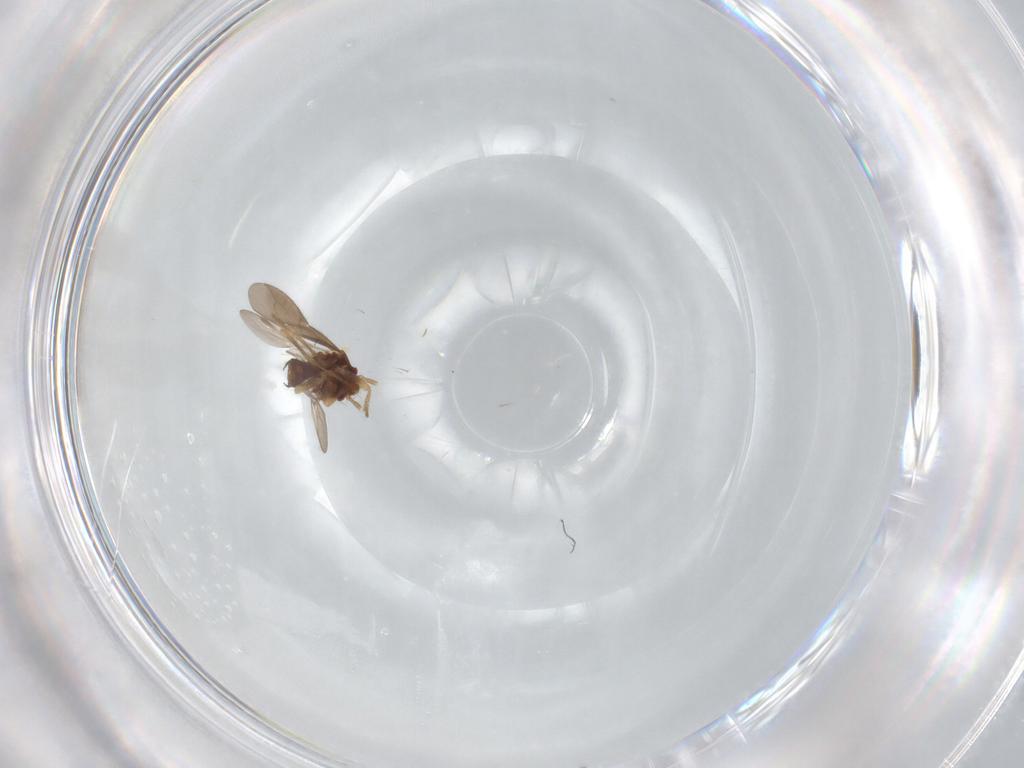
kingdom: Animalia
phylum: Arthropoda
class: Insecta
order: Hemiptera
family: Ceratocombidae
